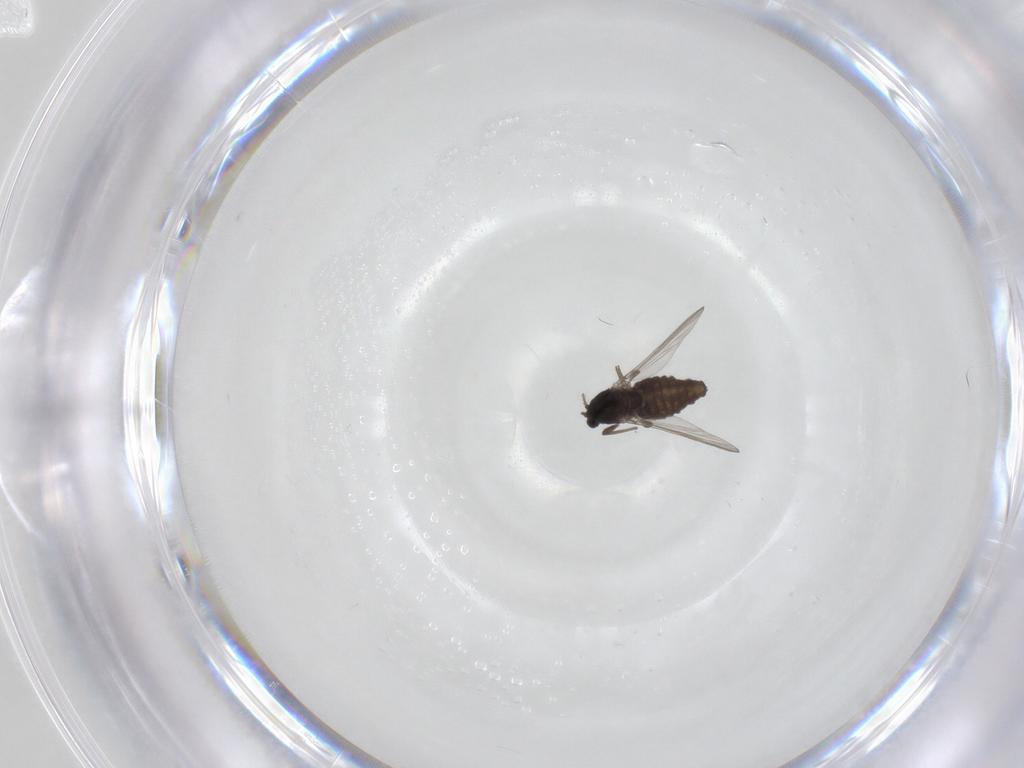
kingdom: Animalia
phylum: Arthropoda
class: Insecta
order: Diptera
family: Chironomidae
